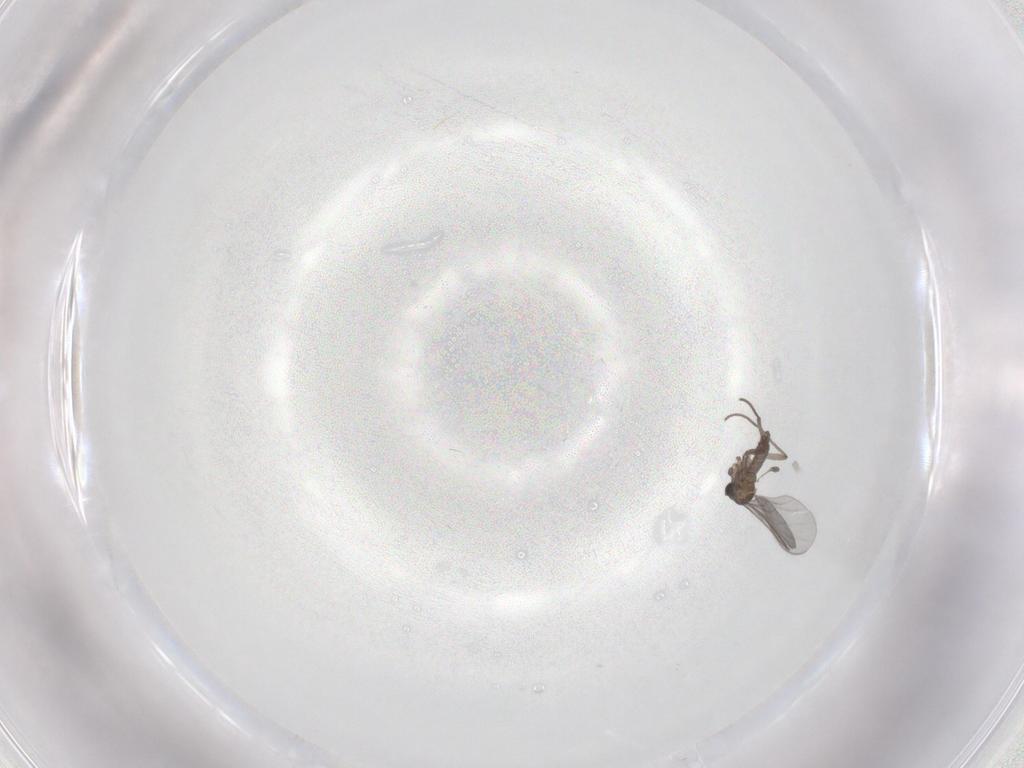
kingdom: Animalia
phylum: Arthropoda
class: Insecta
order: Diptera
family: Sciaridae
